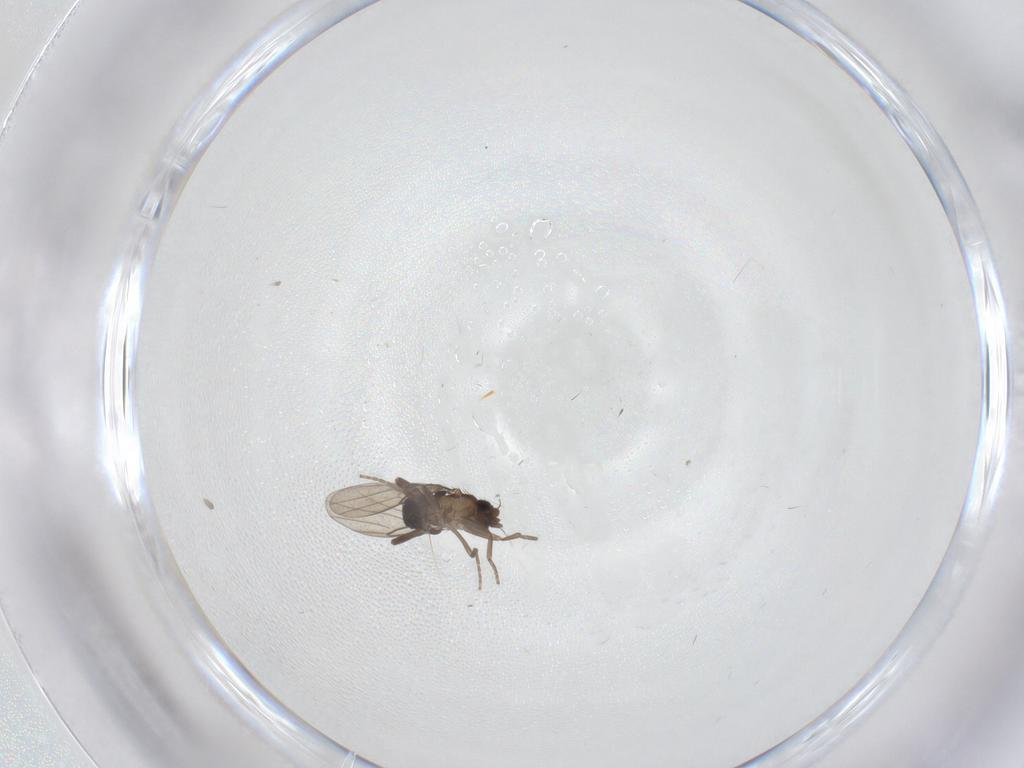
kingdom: Animalia
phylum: Arthropoda
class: Insecta
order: Diptera
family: Phoridae
